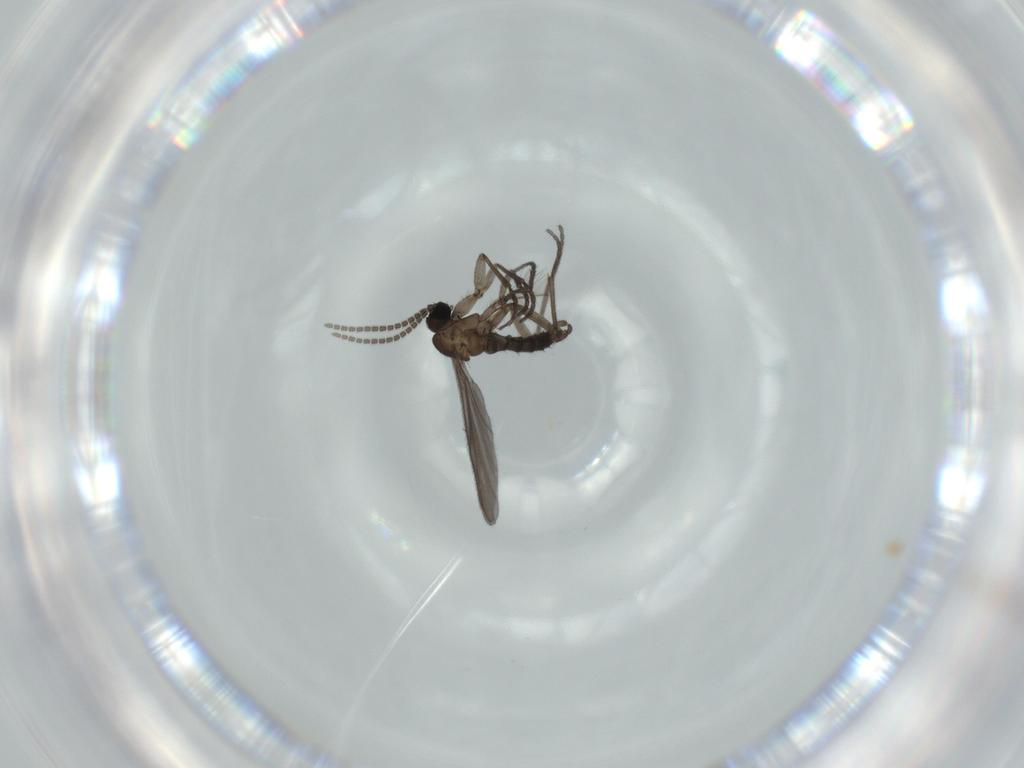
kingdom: Animalia
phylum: Arthropoda
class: Insecta
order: Diptera
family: Sciaridae
